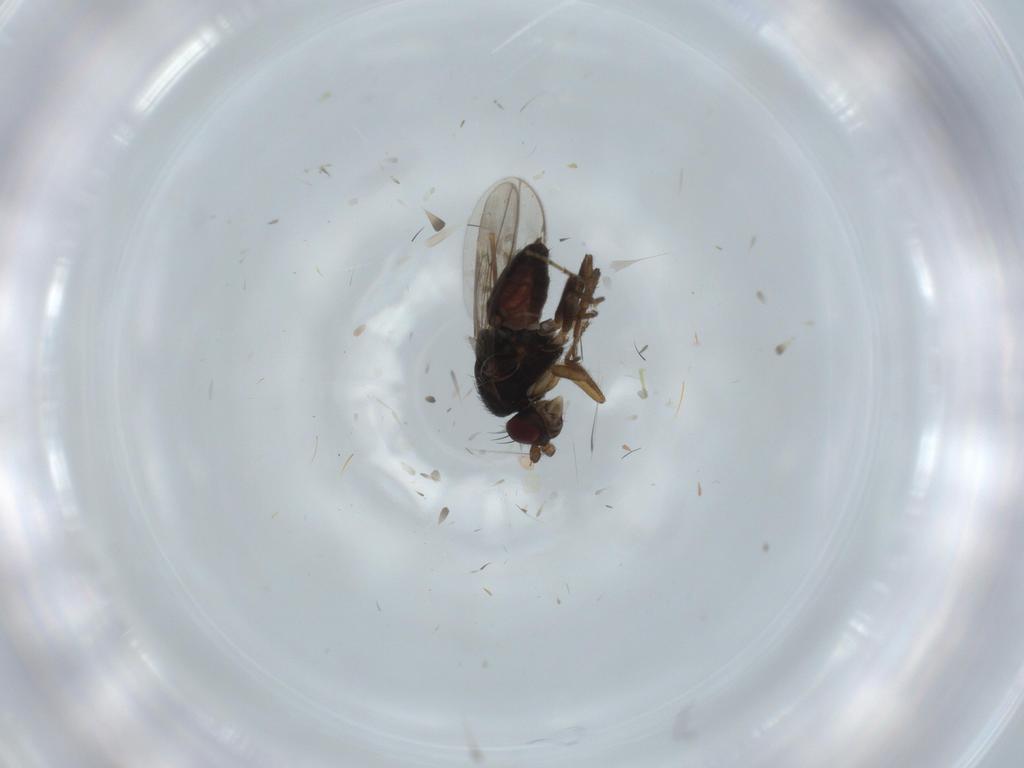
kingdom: Animalia
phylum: Arthropoda
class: Insecta
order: Diptera
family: Sphaeroceridae
